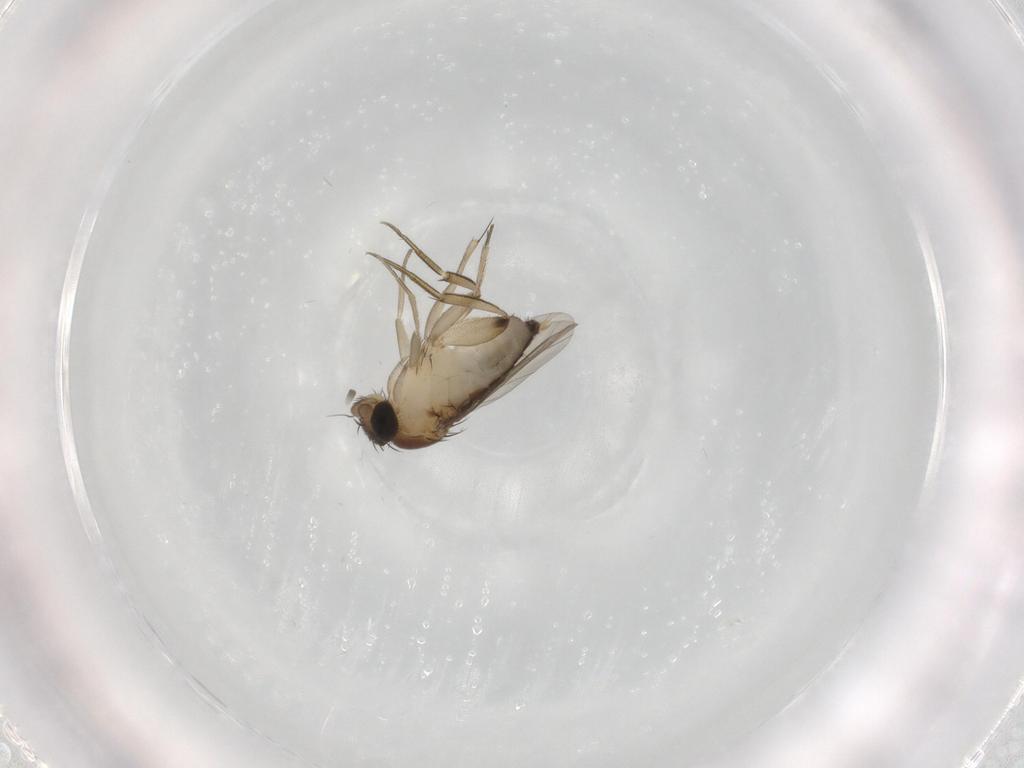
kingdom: Animalia
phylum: Arthropoda
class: Insecta
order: Diptera
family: Phoridae
